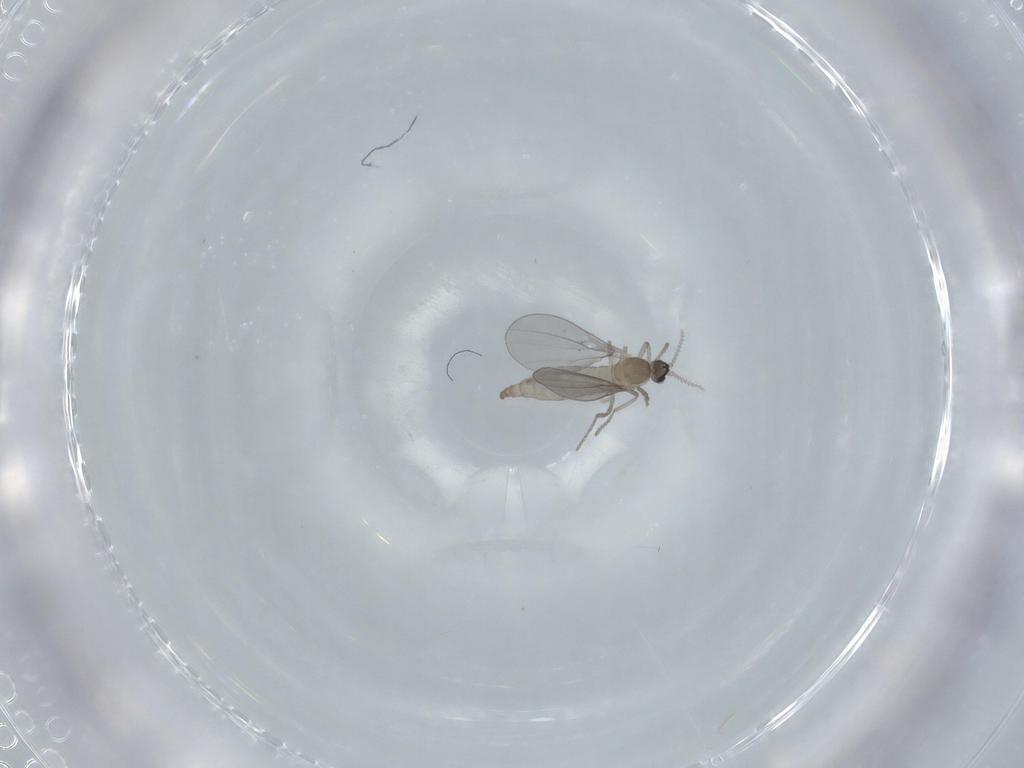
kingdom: Animalia
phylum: Arthropoda
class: Insecta
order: Diptera
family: Cecidomyiidae
